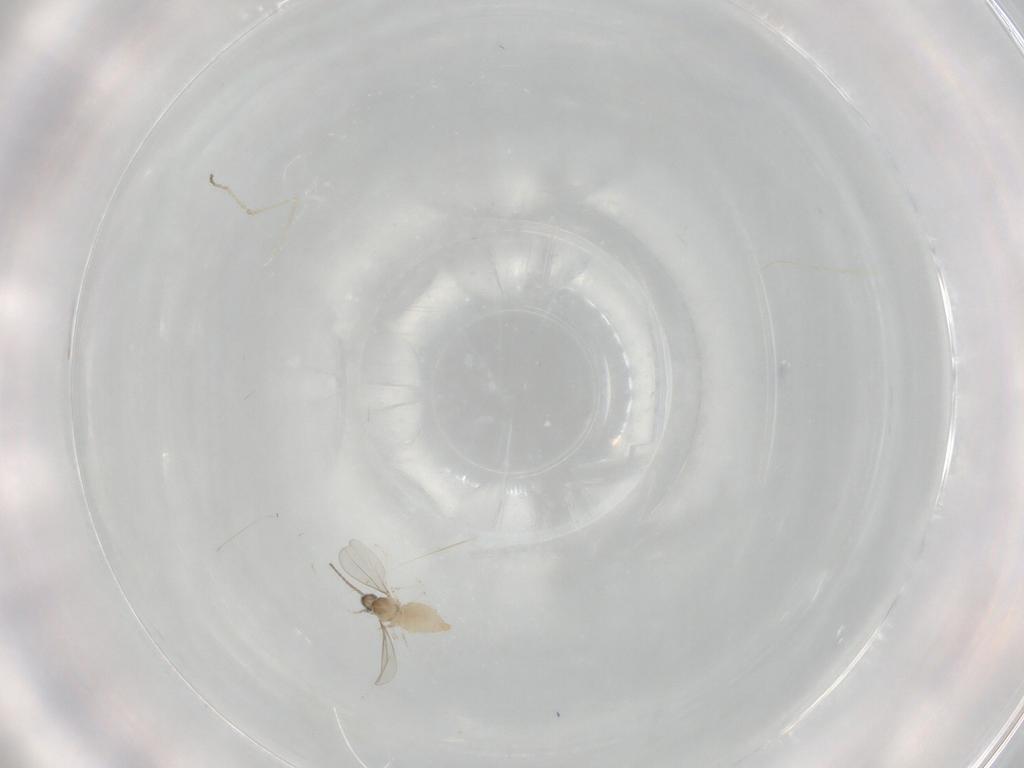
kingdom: Animalia
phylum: Arthropoda
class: Insecta
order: Diptera
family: Cecidomyiidae
